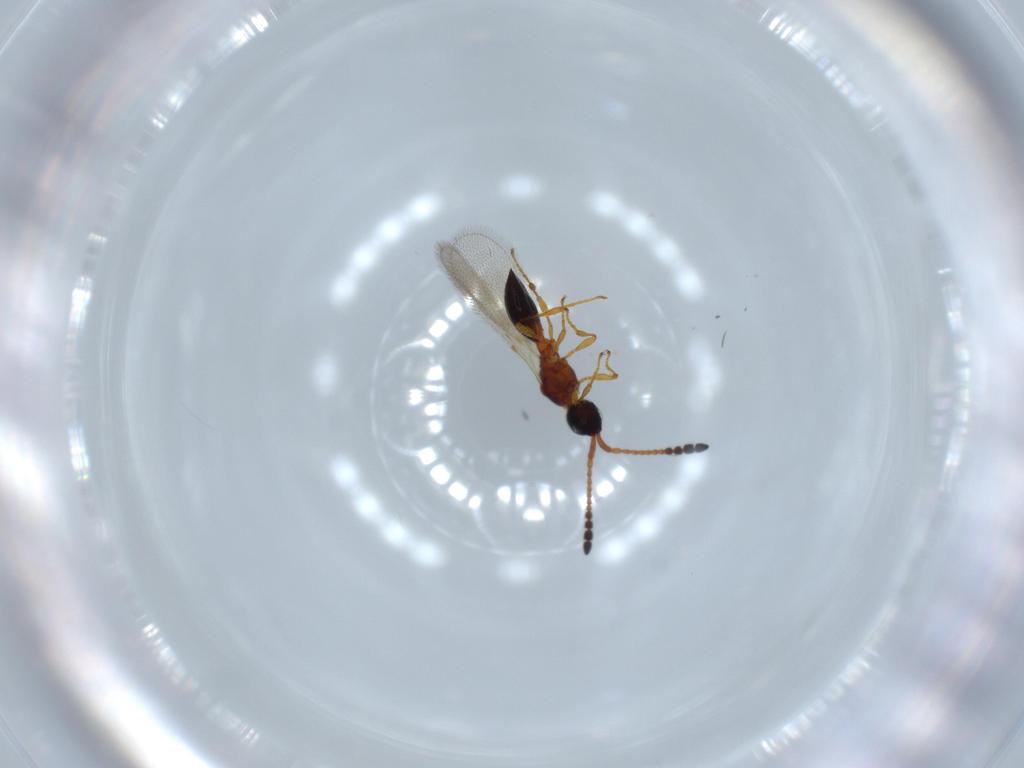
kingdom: Animalia
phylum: Arthropoda
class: Insecta
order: Hymenoptera
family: Diapriidae
